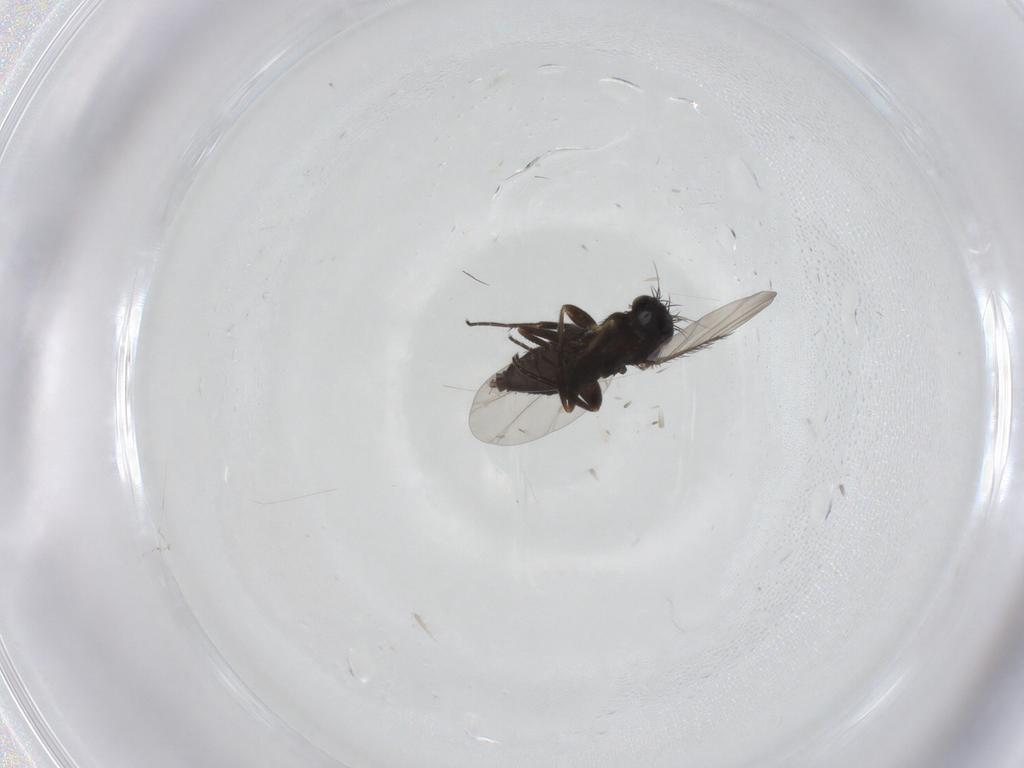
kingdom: Animalia
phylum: Arthropoda
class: Insecta
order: Diptera
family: Phoridae
